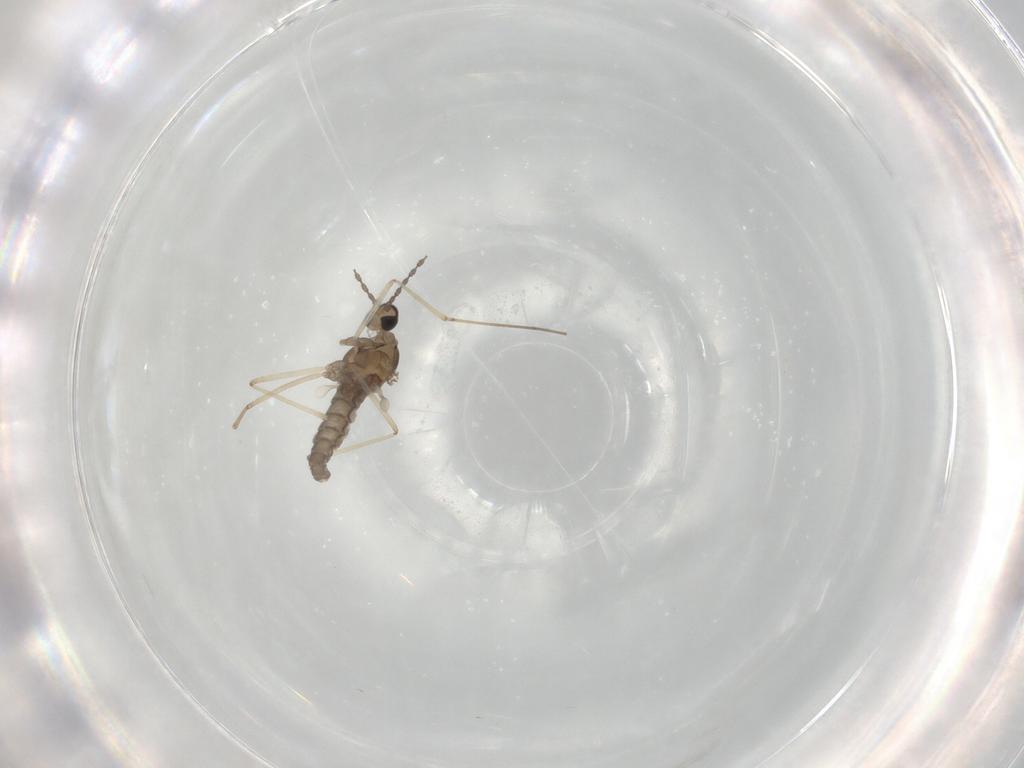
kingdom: Animalia
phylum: Arthropoda
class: Insecta
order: Diptera
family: Cecidomyiidae
